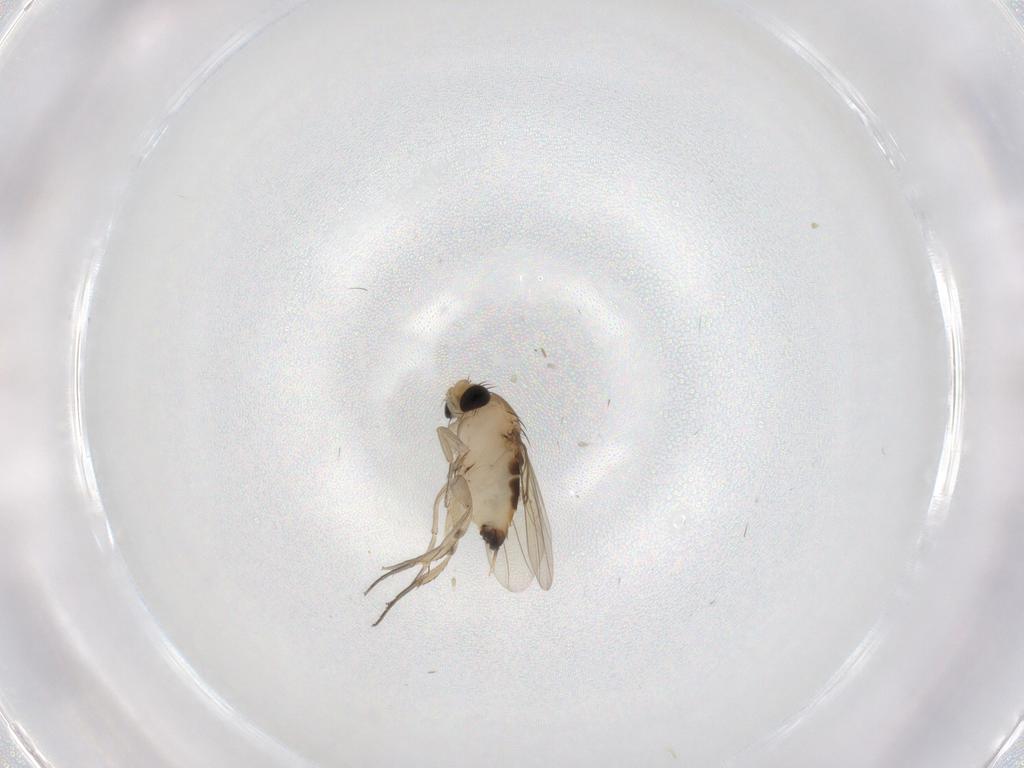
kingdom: Animalia
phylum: Arthropoda
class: Insecta
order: Diptera
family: Phoridae
